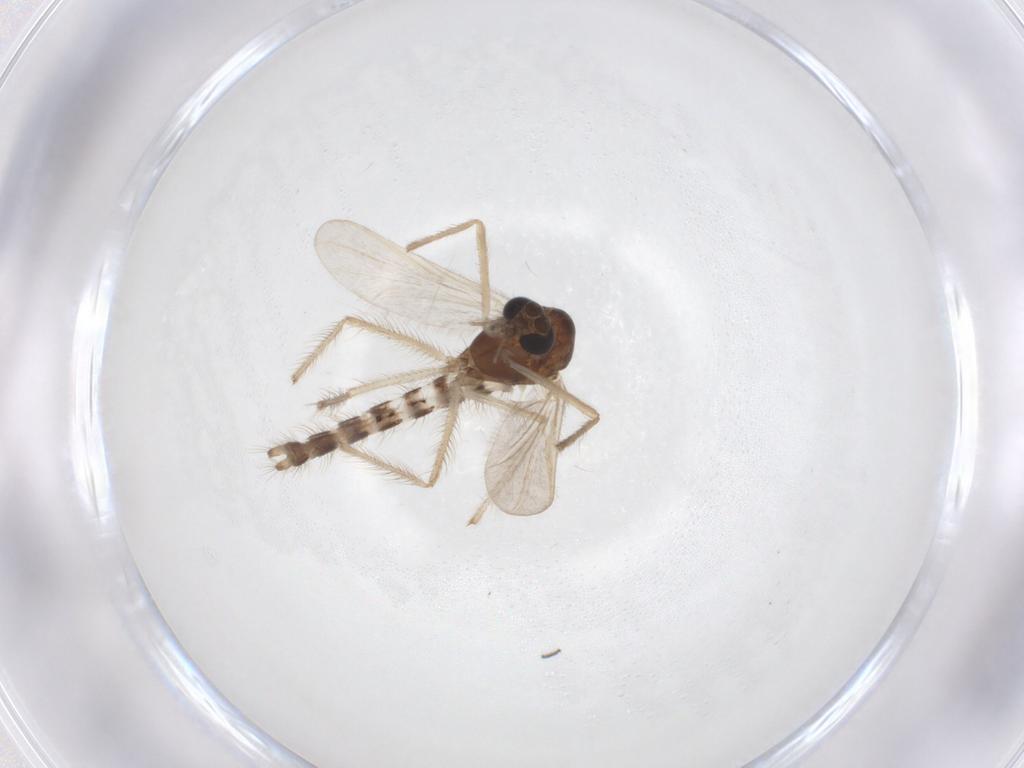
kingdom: Animalia
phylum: Arthropoda
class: Insecta
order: Diptera
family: Chironomidae
